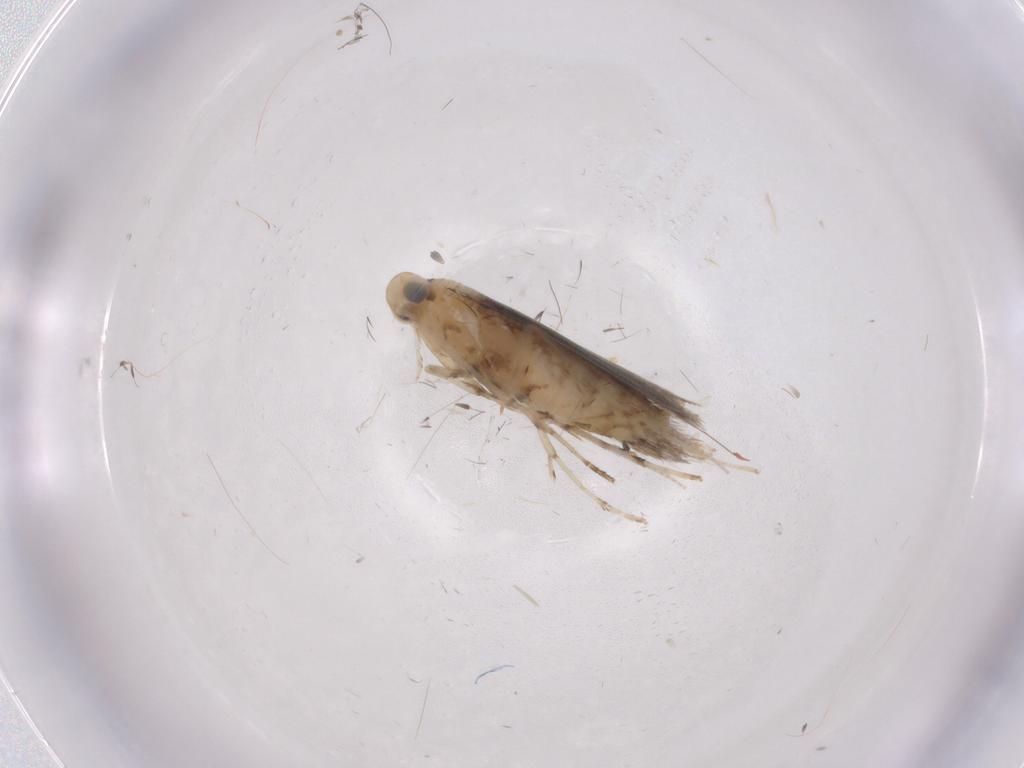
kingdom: Animalia
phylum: Arthropoda
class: Insecta
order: Lepidoptera
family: Gracillariidae
